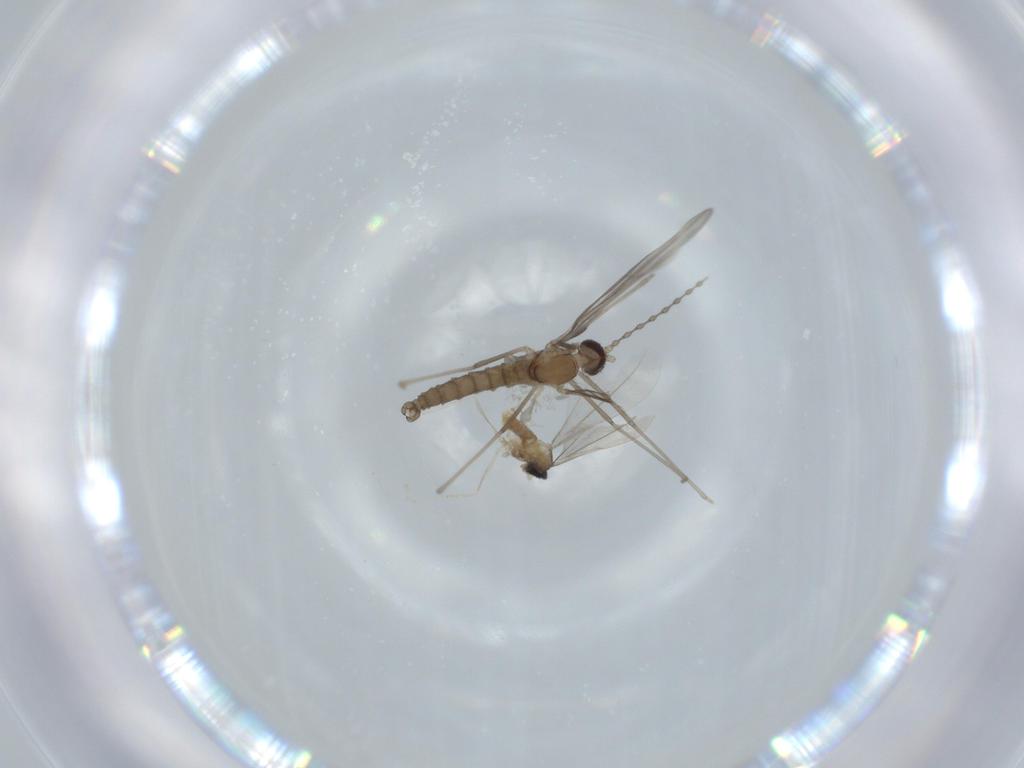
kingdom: Animalia
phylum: Arthropoda
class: Insecta
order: Diptera
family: Cecidomyiidae
